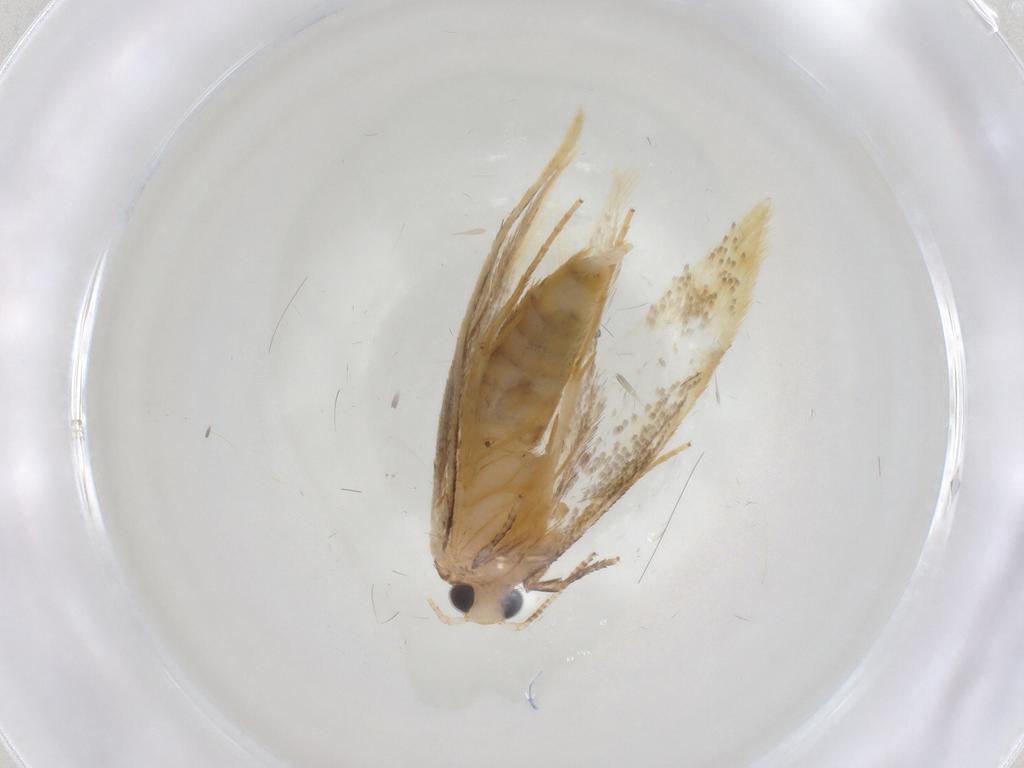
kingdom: Animalia
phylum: Arthropoda
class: Insecta
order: Lepidoptera
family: Tineidae
